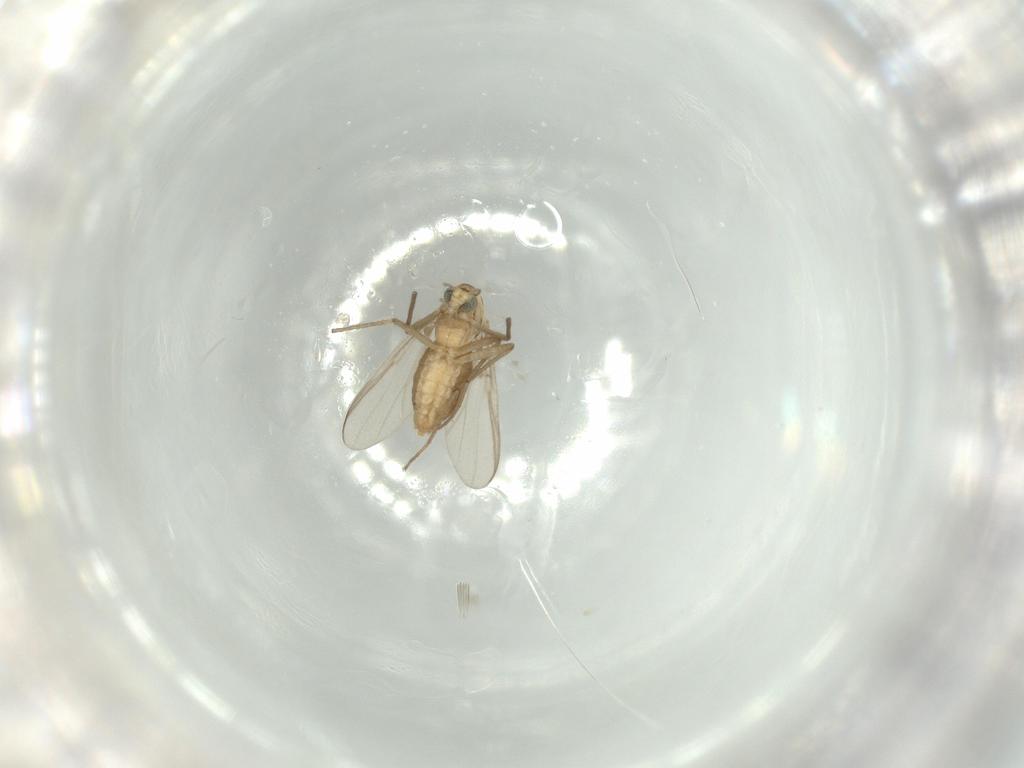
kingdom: Animalia
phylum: Arthropoda
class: Insecta
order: Diptera
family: Chironomidae
